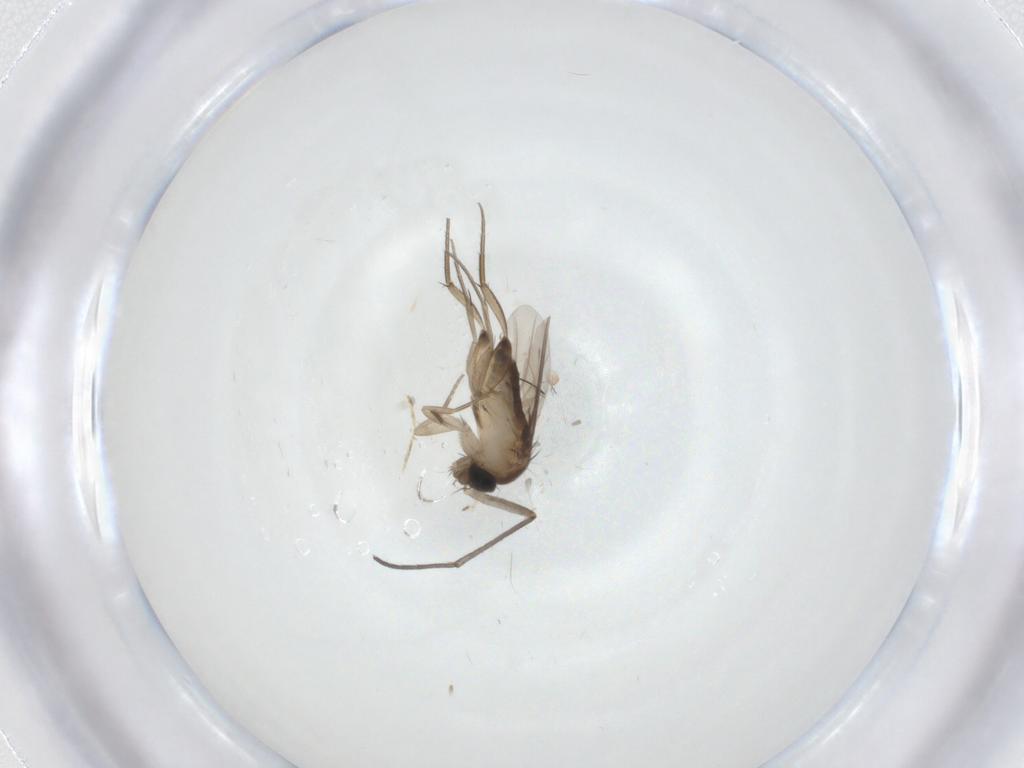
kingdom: Animalia
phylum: Arthropoda
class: Insecta
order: Diptera
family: Phoridae
